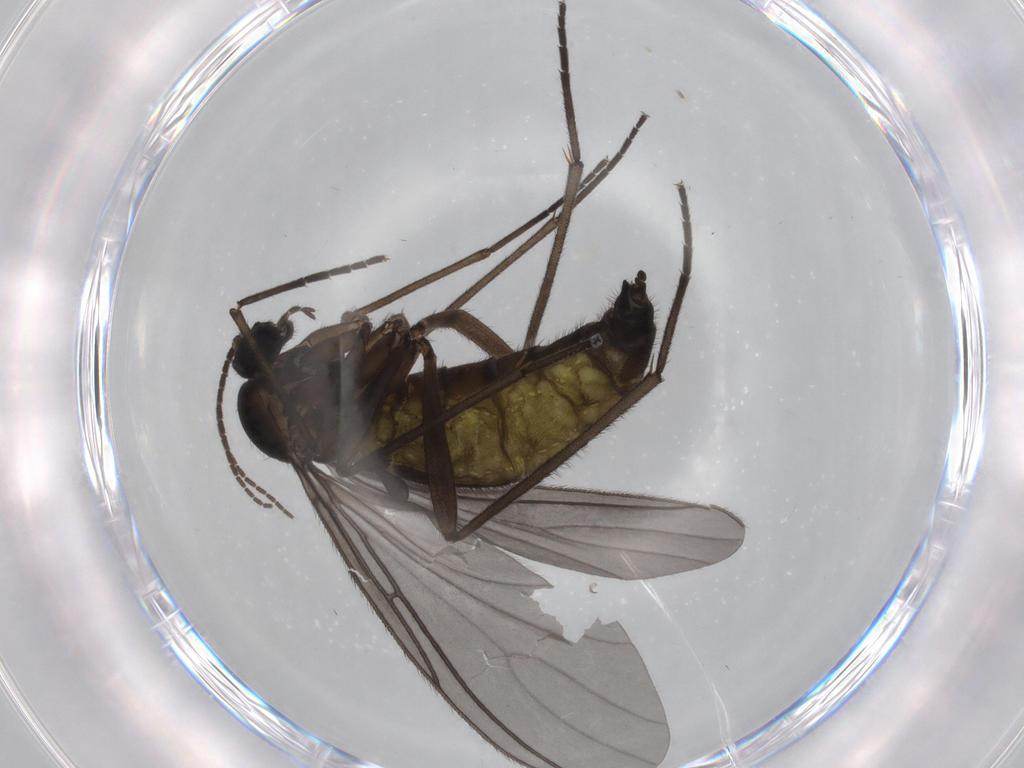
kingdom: Animalia
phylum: Arthropoda
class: Insecta
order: Diptera
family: Sciaridae
